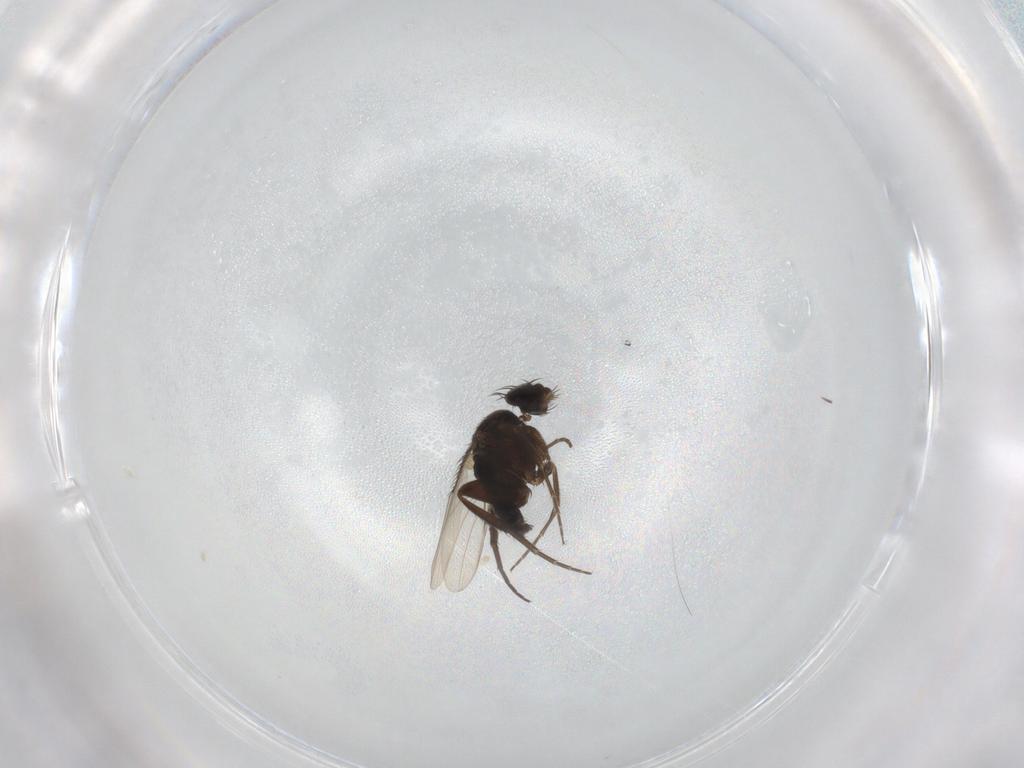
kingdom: Animalia
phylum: Arthropoda
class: Insecta
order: Diptera
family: Phoridae
